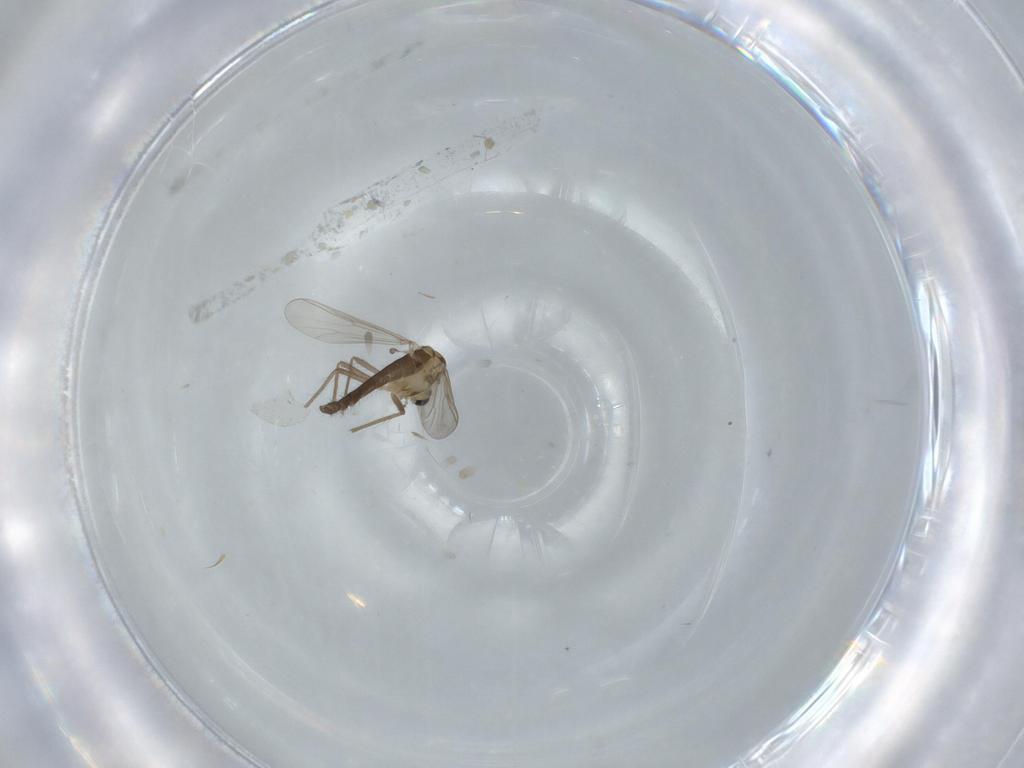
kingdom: Animalia
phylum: Arthropoda
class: Insecta
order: Diptera
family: Chironomidae
